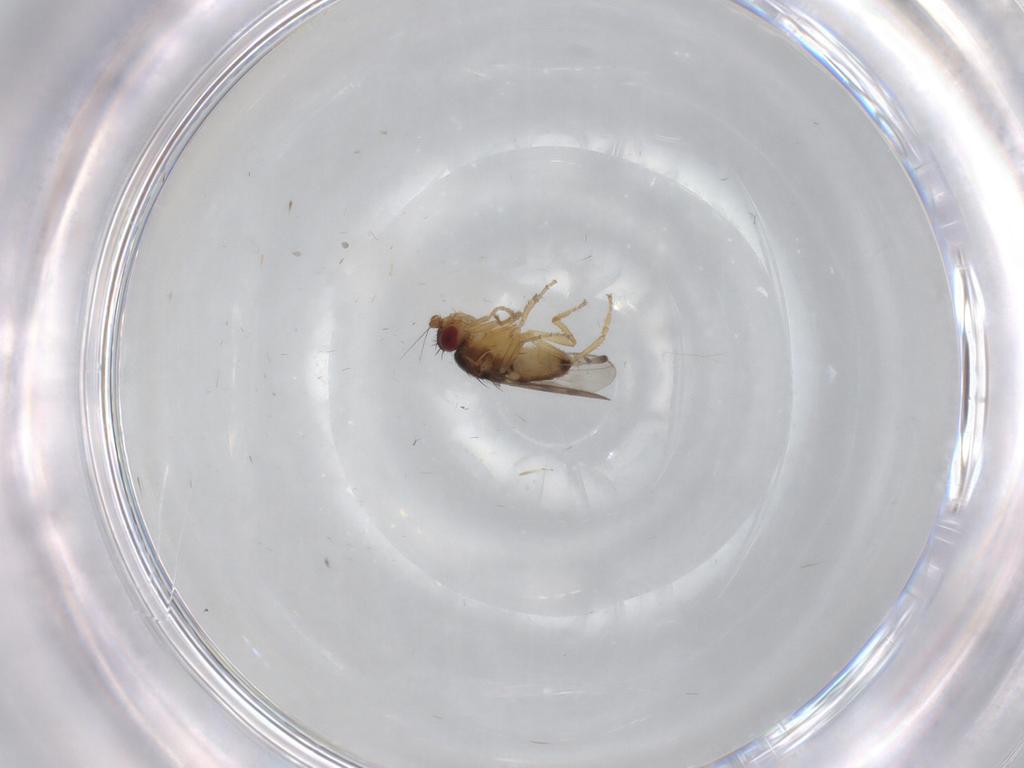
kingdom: Animalia
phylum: Arthropoda
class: Insecta
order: Diptera
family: Sphaeroceridae
